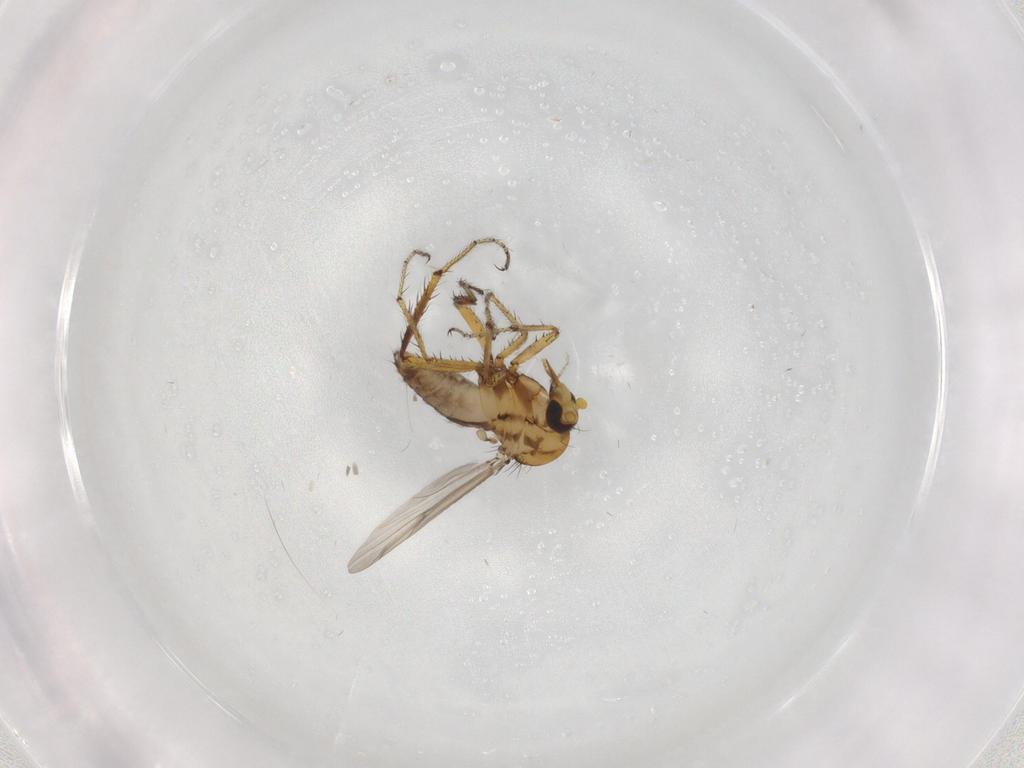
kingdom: Animalia
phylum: Arthropoda
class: Insecta
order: Diptera
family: Ceratopogonidae
